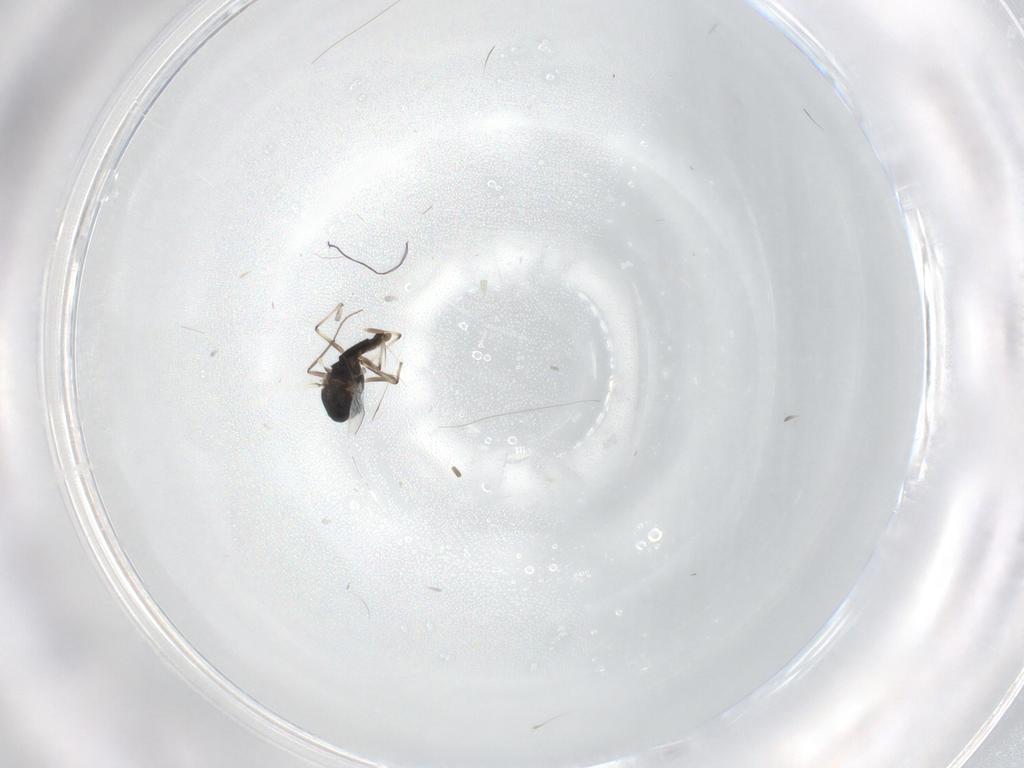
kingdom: Animalia
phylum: Arthropoda
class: Insecta
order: Diptera
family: Chironomidae
